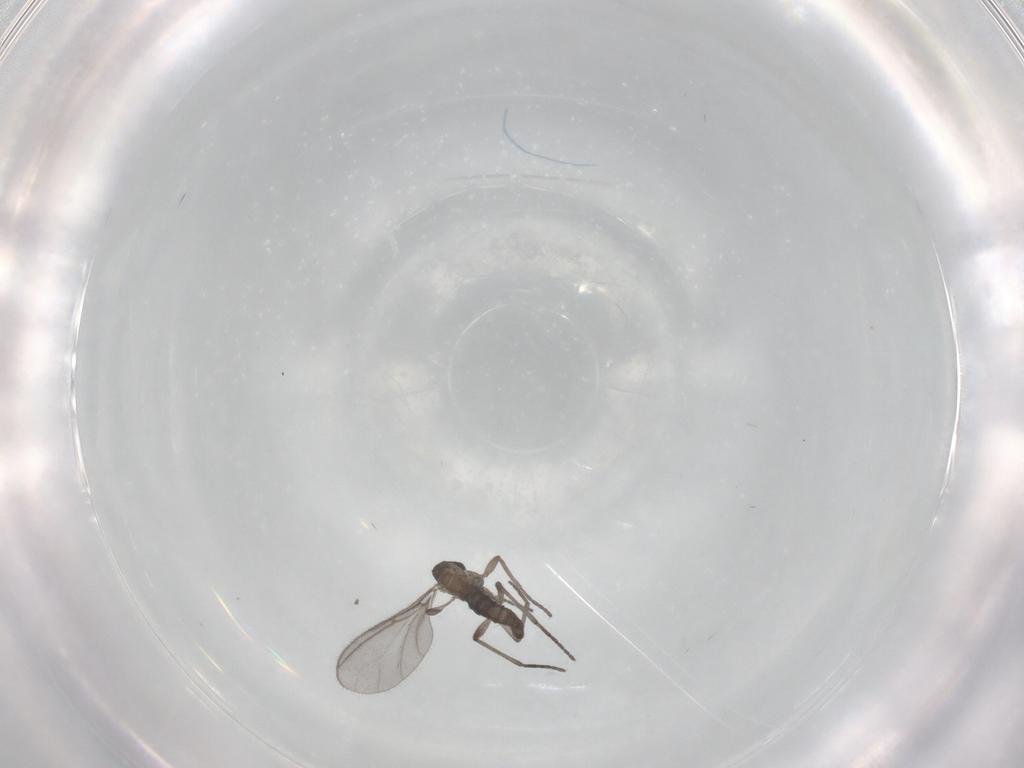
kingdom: Animalia
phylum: Arthropoda
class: Insecta
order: Diptera
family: Sciaridae
